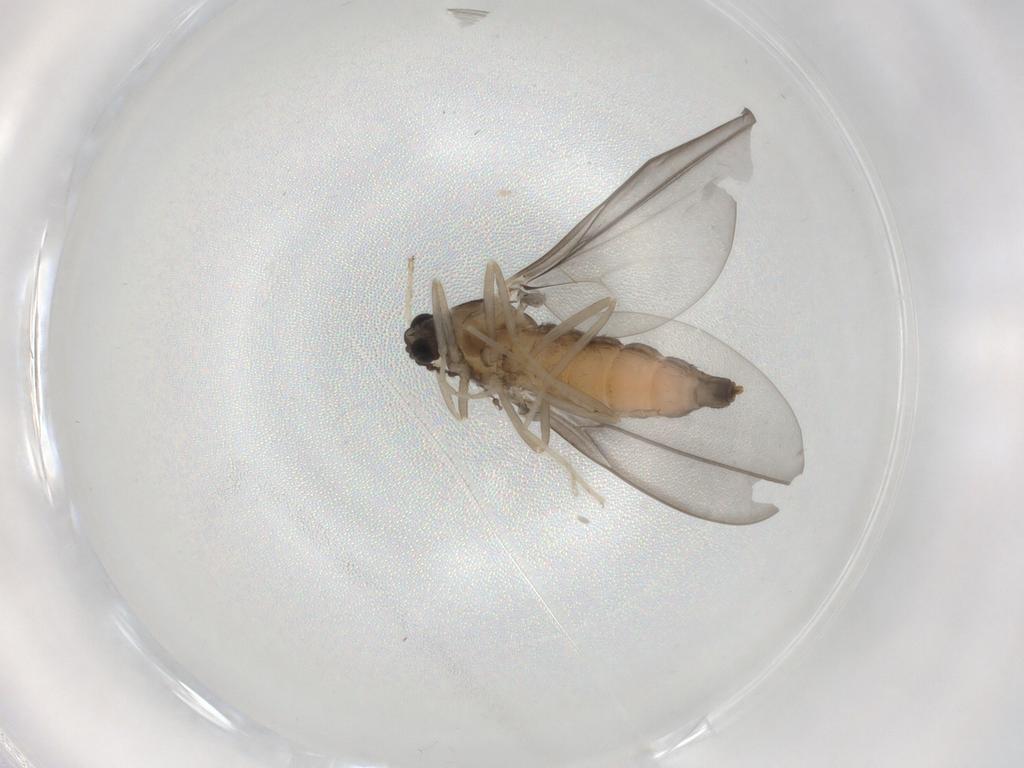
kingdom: Animalia
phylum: Arthropoda
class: Insecta
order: Diptera
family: Cecidomyiidae
